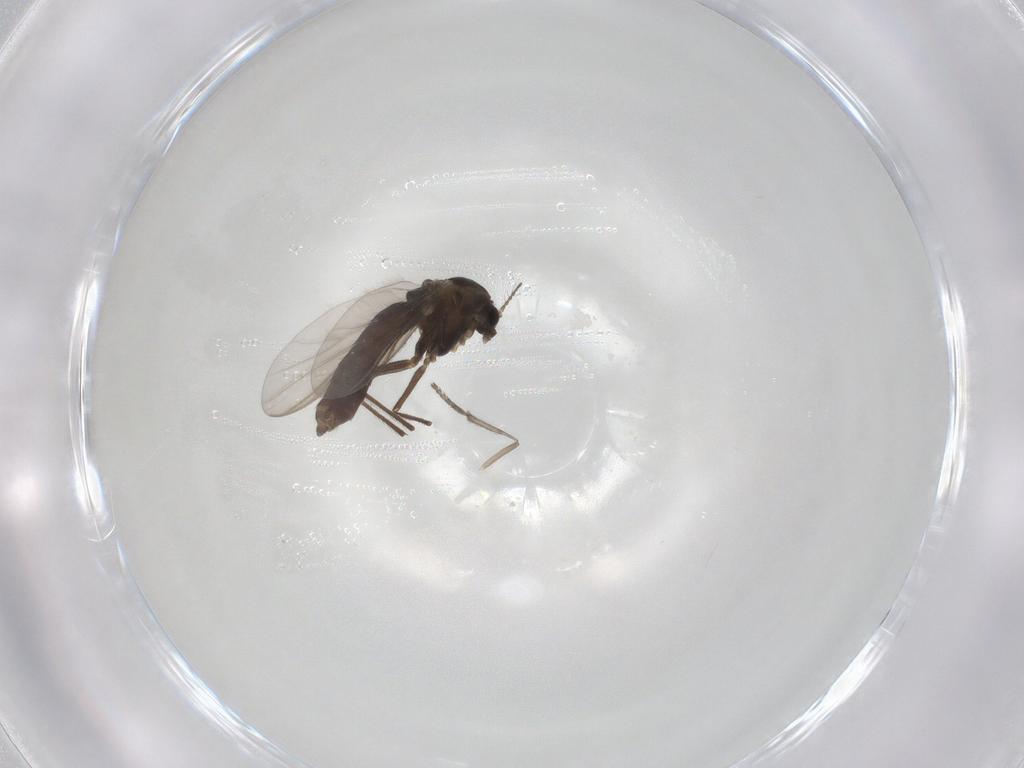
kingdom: Animalia
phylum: Arthropoda
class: Insecta
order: Diptera
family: Chironomidae
